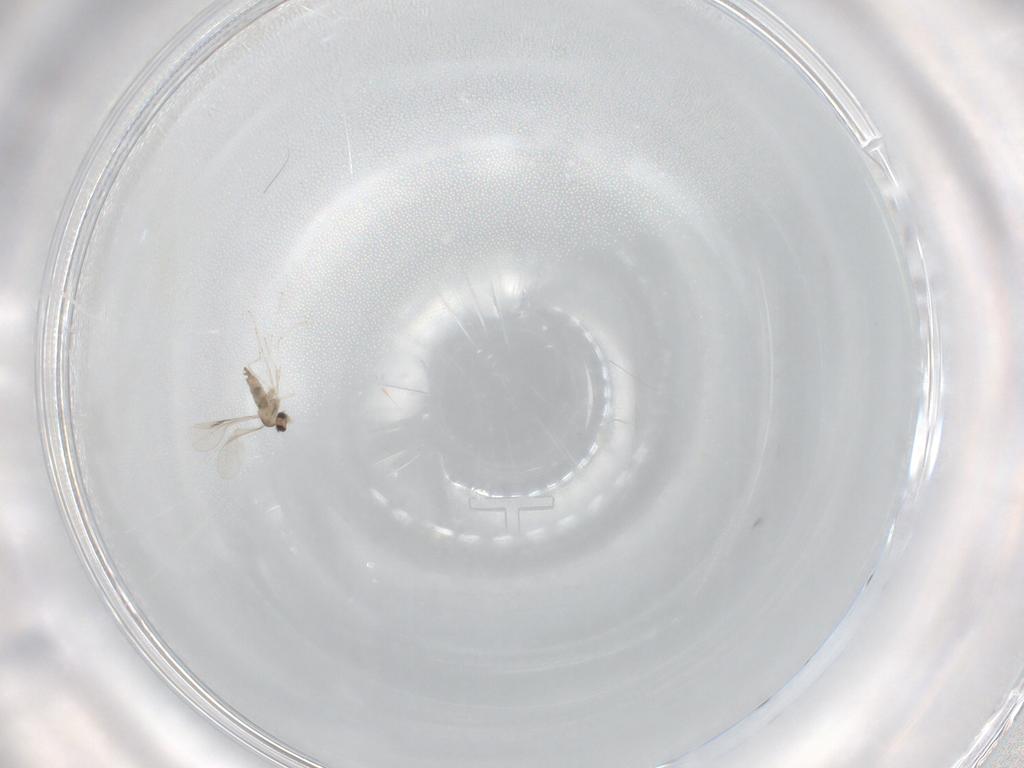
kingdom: Animalia
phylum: Arthropoda
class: Insecta
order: Diptera
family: Cecidomyiidae
